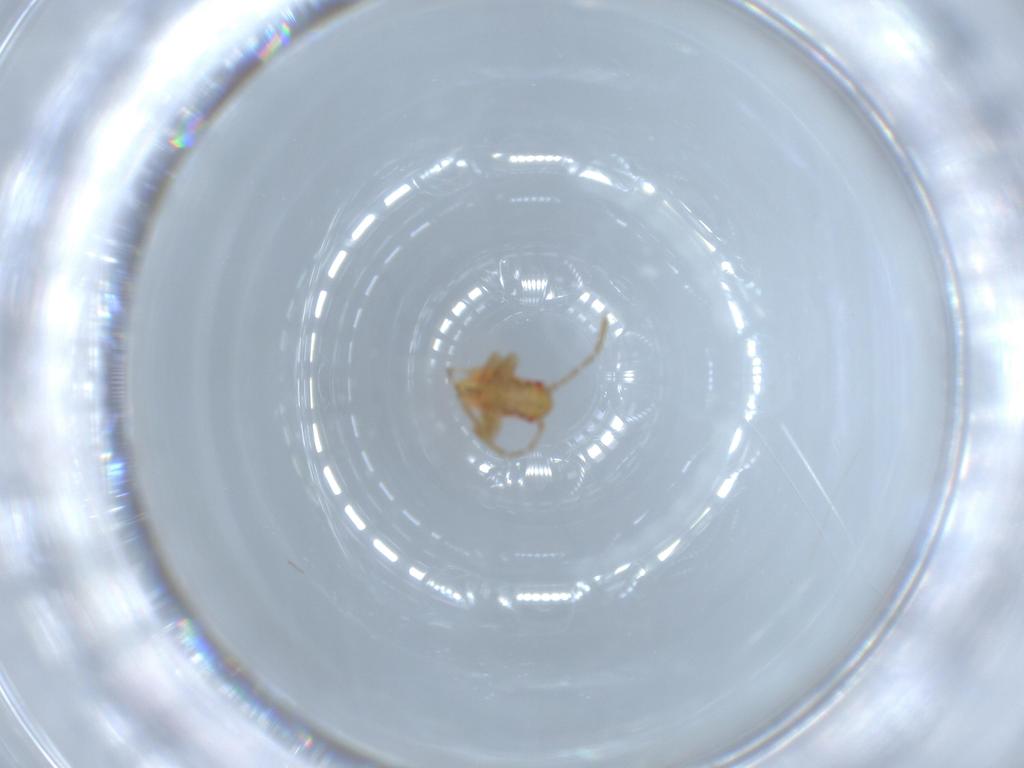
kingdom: Animalia
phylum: Arthropoda
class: Insecta
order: Hemiptera
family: Miridae
